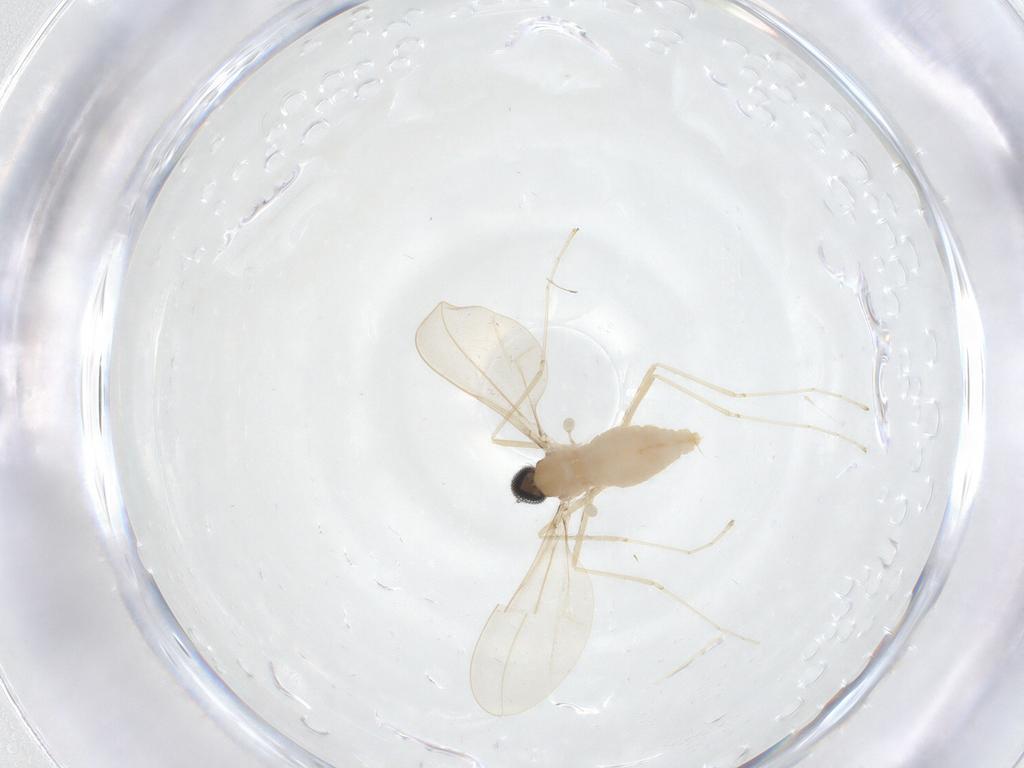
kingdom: Animalia
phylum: Arthropoda
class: Insecta
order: Diptera
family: Cecidomyiidae
